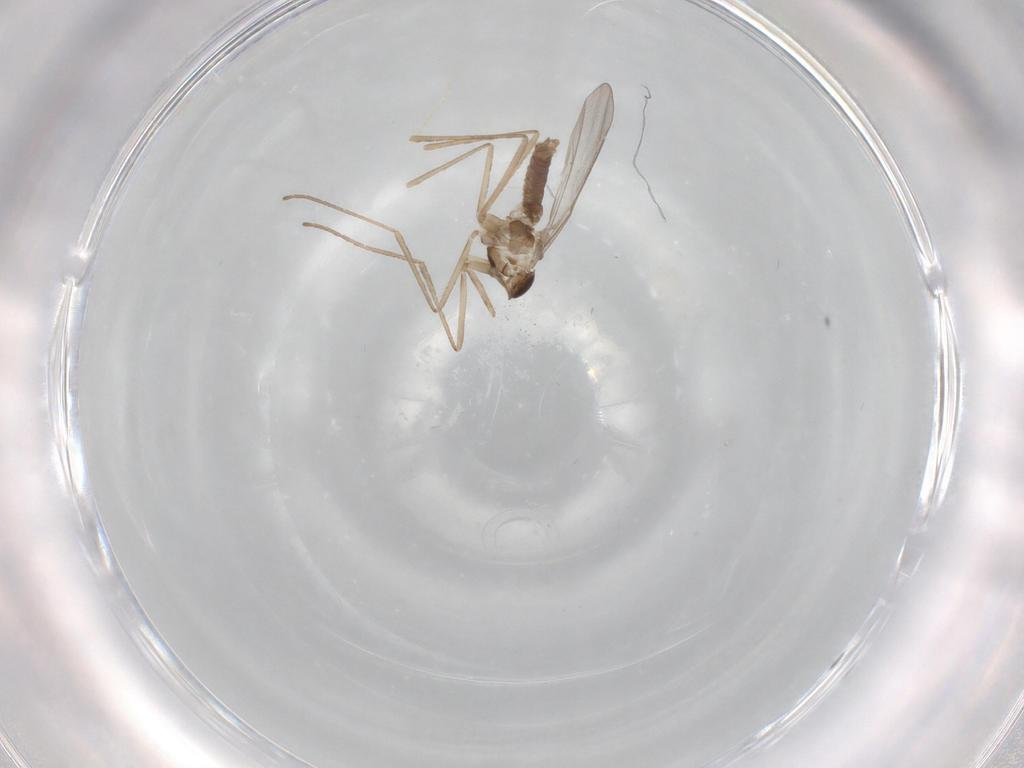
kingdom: Animalia
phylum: Arthropoda
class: Insecta
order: Diptera
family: Cecidomyiidae
